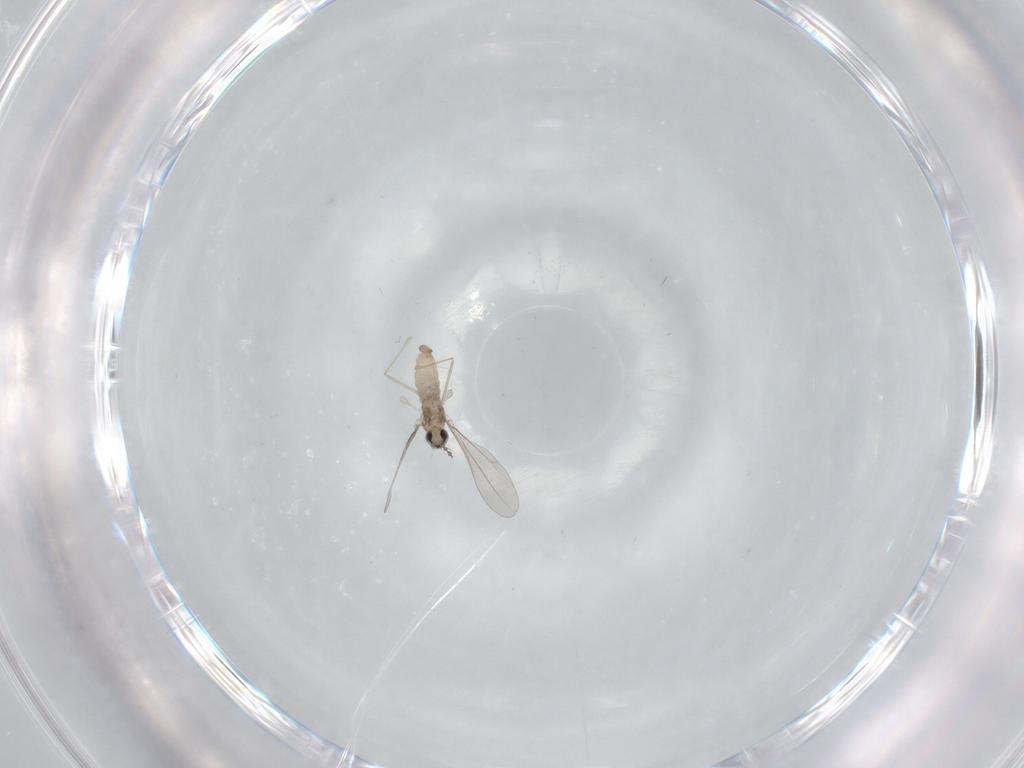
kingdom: Animalia
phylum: Arthropoda
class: Insecta
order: Diptera
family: Cecidomyiidae
